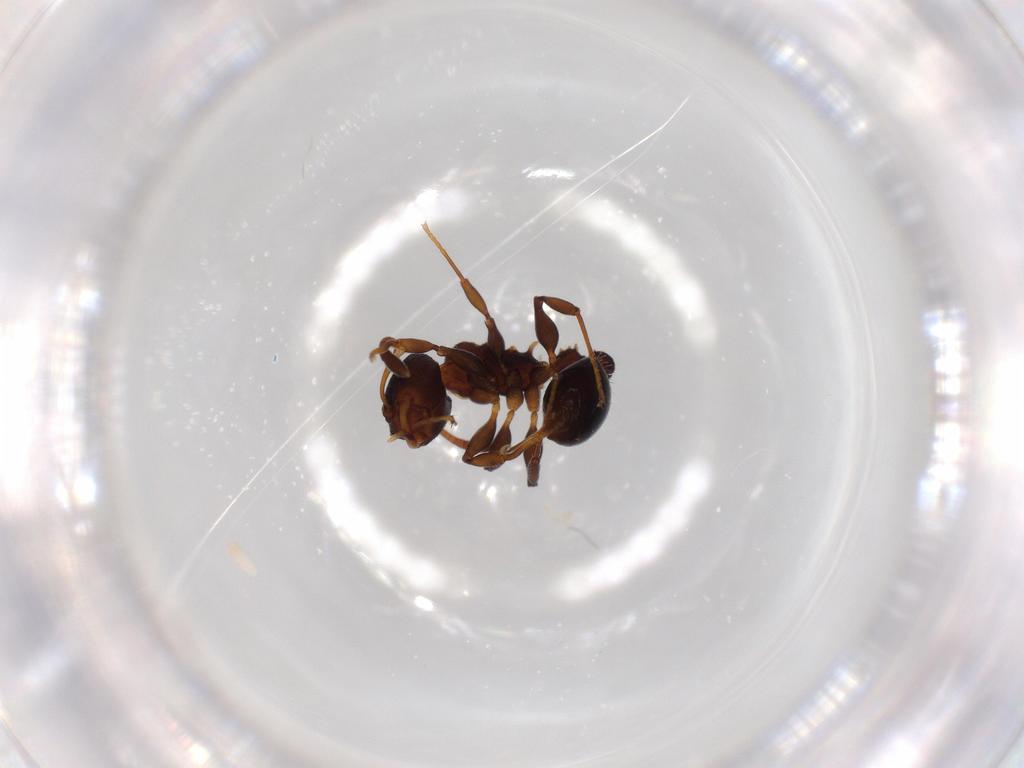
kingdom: Animalia
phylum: Arthropoda
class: Insecta
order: Hymenoptera
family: Formicidae
